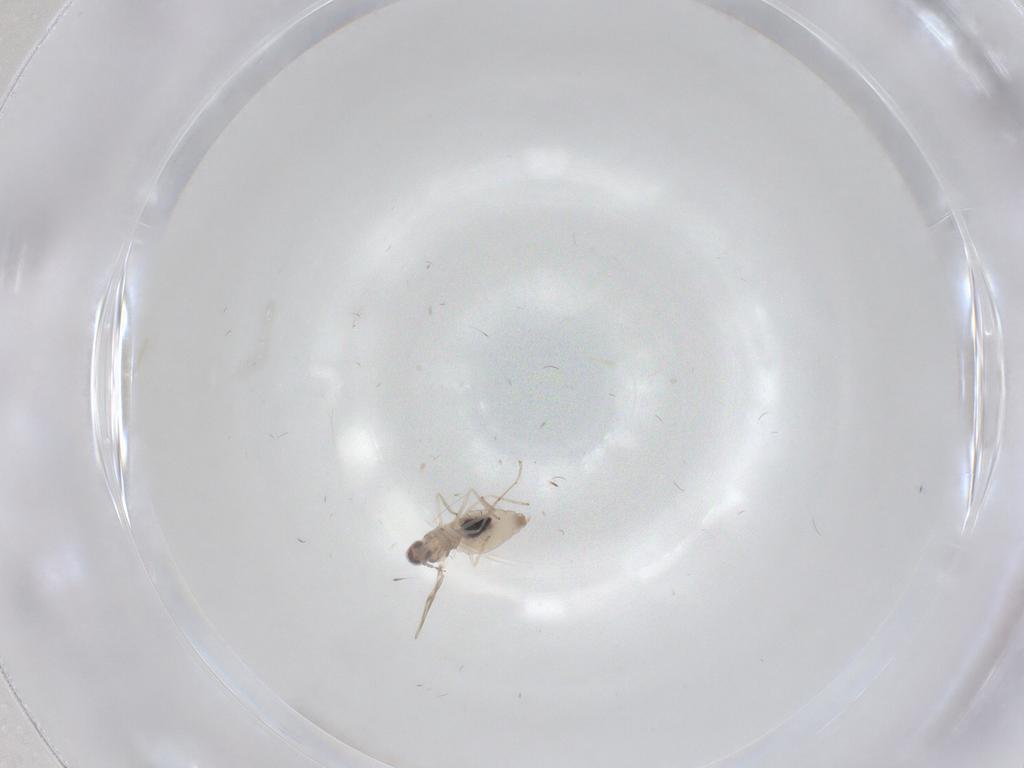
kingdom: Animalia
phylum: Arthropoda
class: Insecta
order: Diptera
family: Cecidomyiidae
